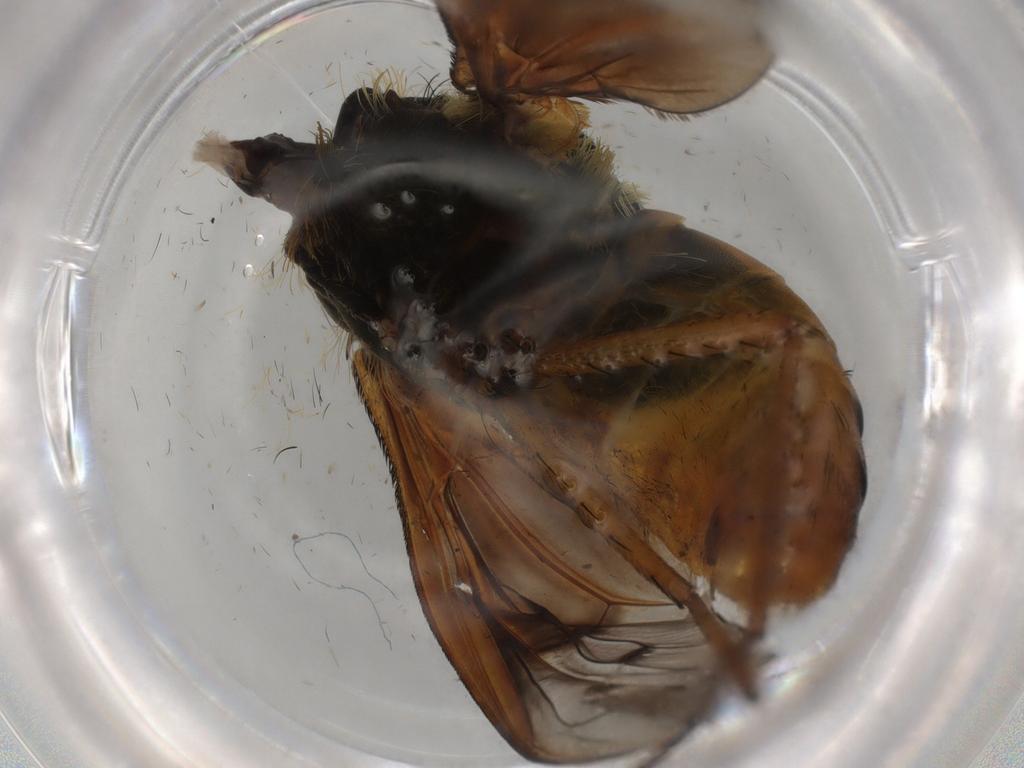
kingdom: Animalia
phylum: Arthropoda
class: Insecta
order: Diptera
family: Bombyliidae
